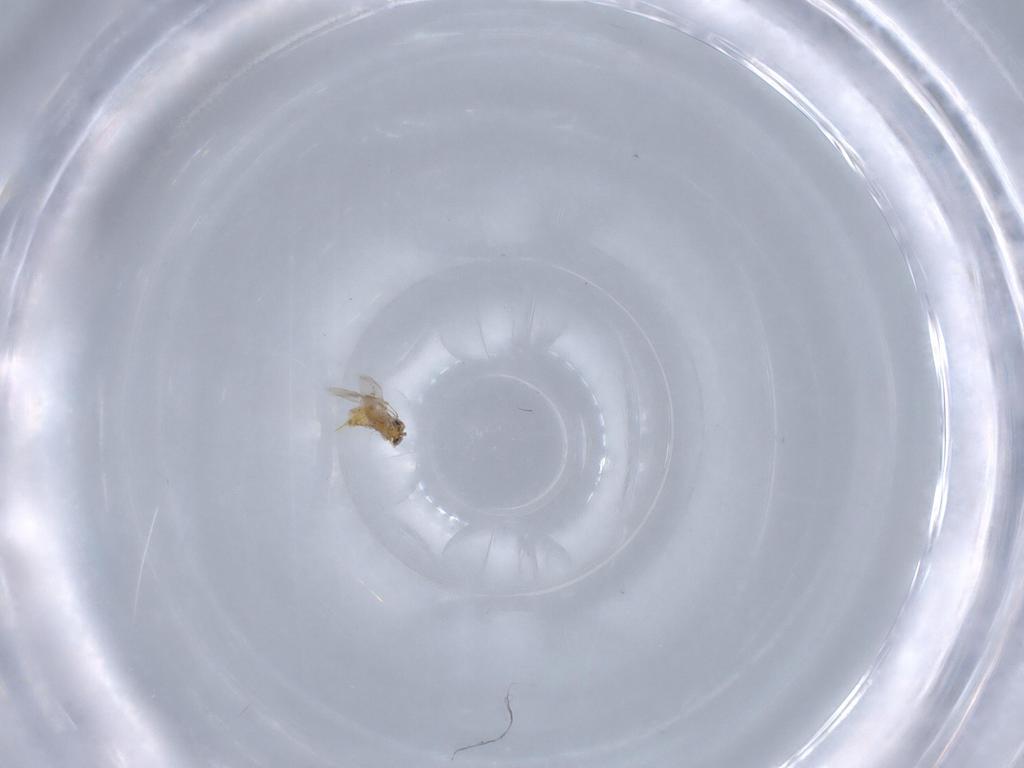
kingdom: Animalia
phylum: Arthropoda
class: Insecta
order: Hymenoptera
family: Aphelinidae
